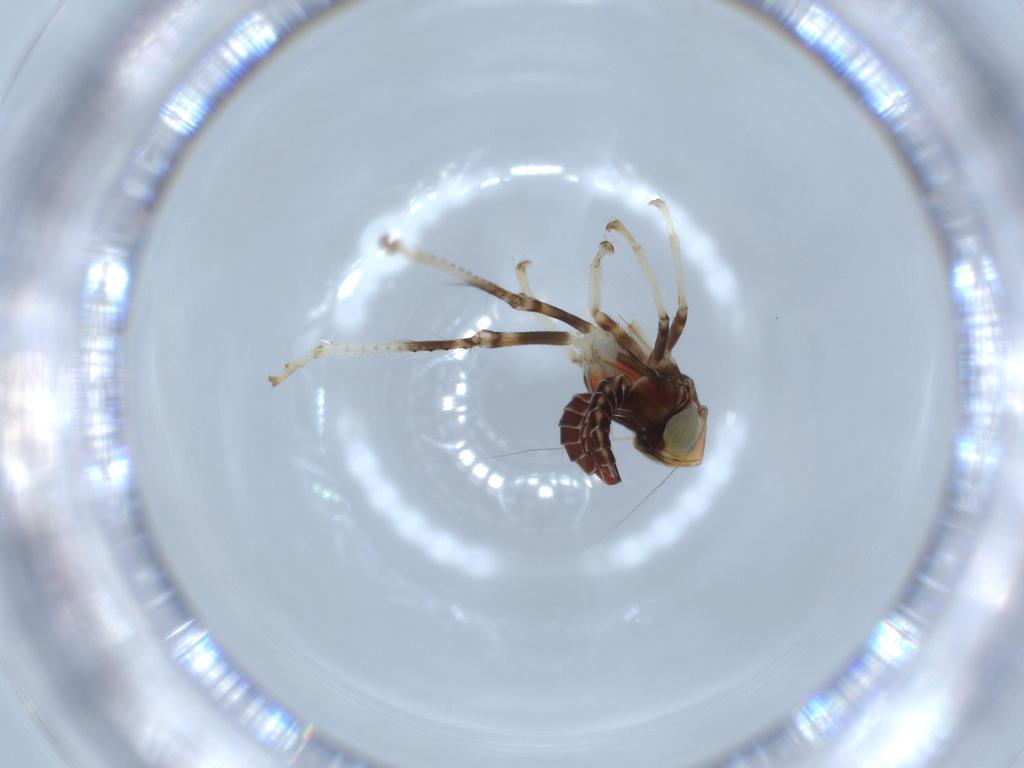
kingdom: Animalia
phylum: Arthropoda
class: Insecta
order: Hemiptera
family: Cicadellidae
